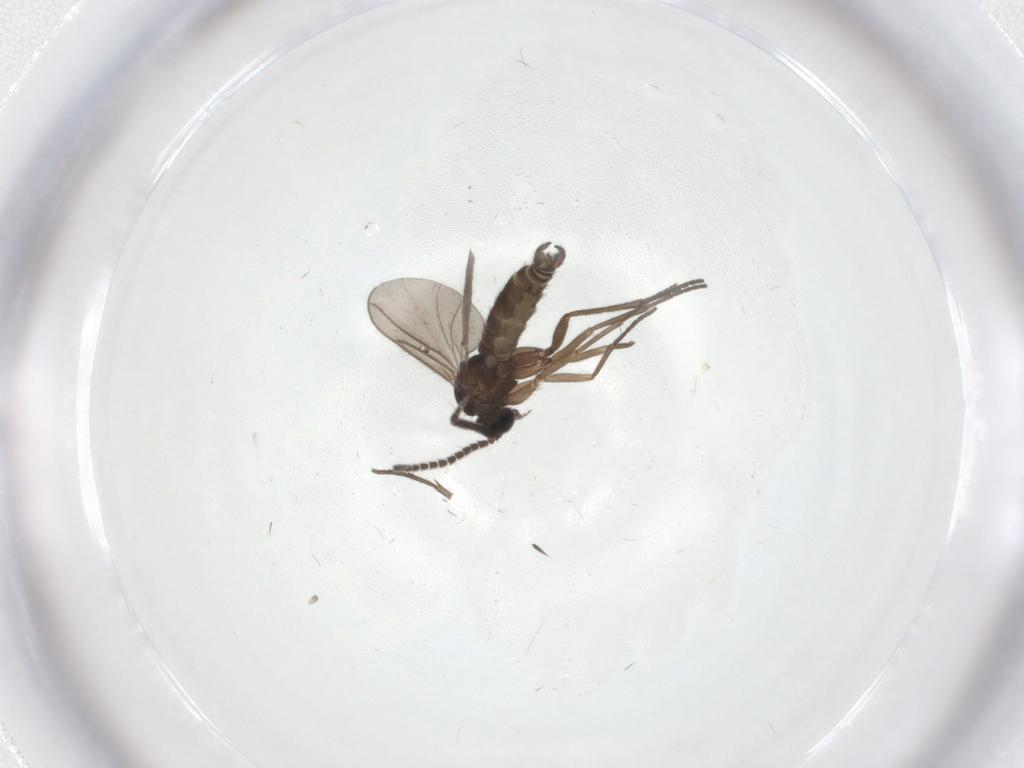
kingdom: Animalia
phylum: Arthropoda
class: Insecta
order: Diptera
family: Sciaridae
